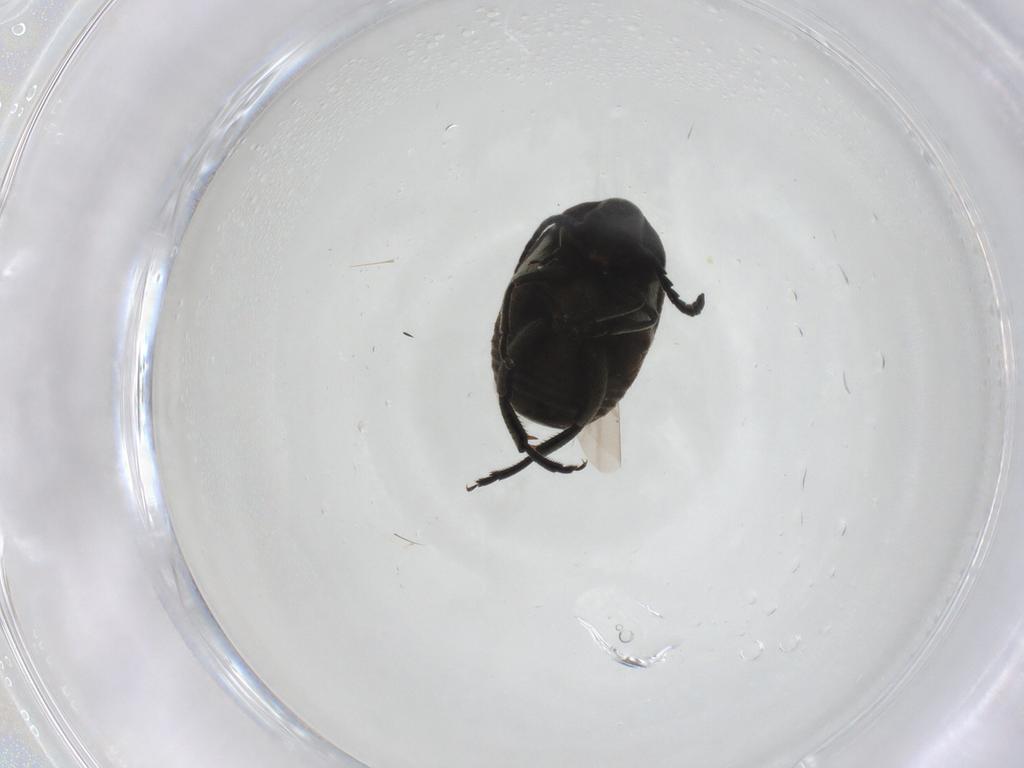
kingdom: Animalia
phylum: Arthropoda
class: Insecta
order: Coleoptera
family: Chrysomelidae
